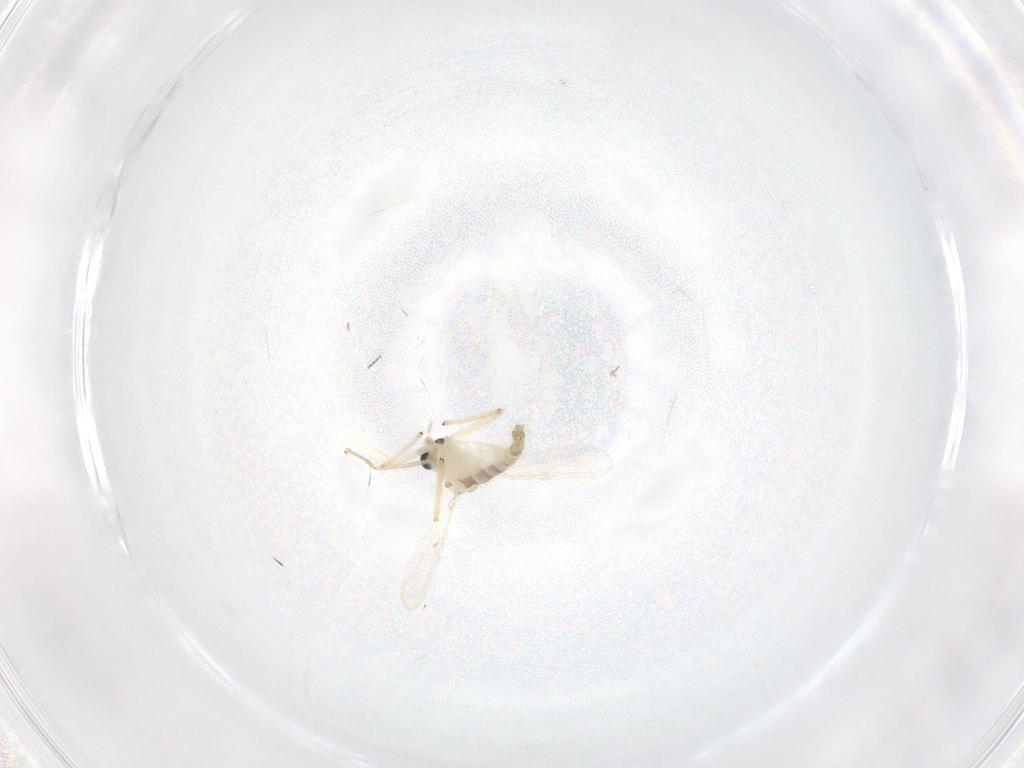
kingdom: Animalia
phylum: Arthropoda
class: Insecta
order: Diptera
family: Chironomidae
